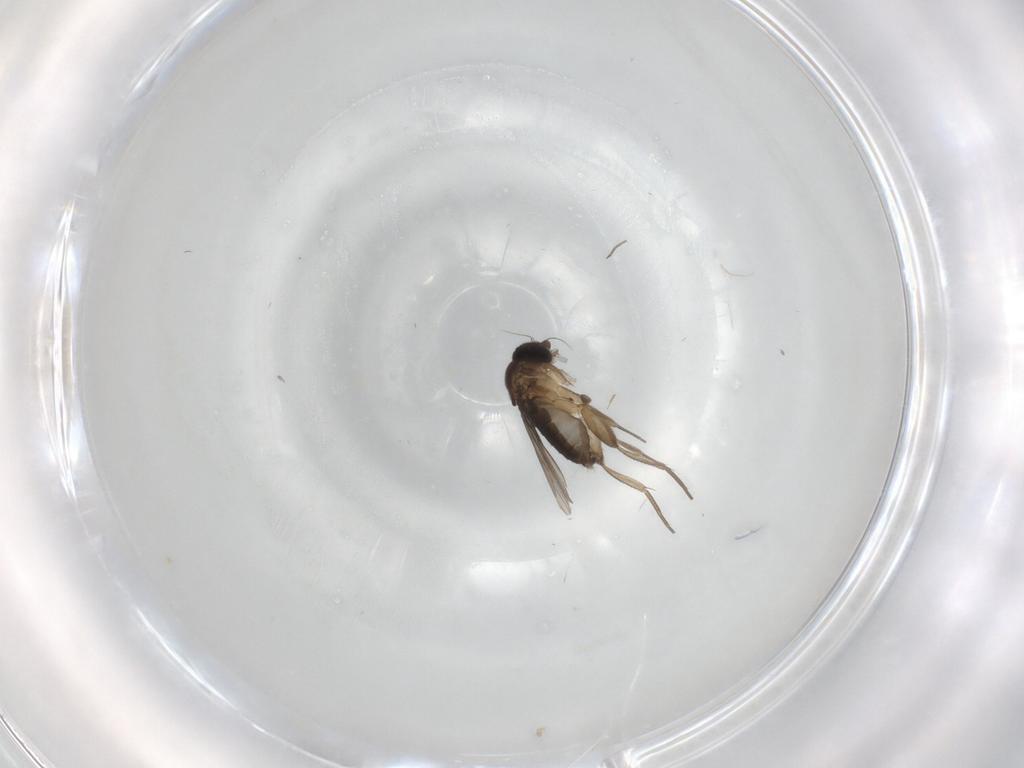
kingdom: Animalia
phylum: Arthropoda
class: Insecta
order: Diptera
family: Phoridae
